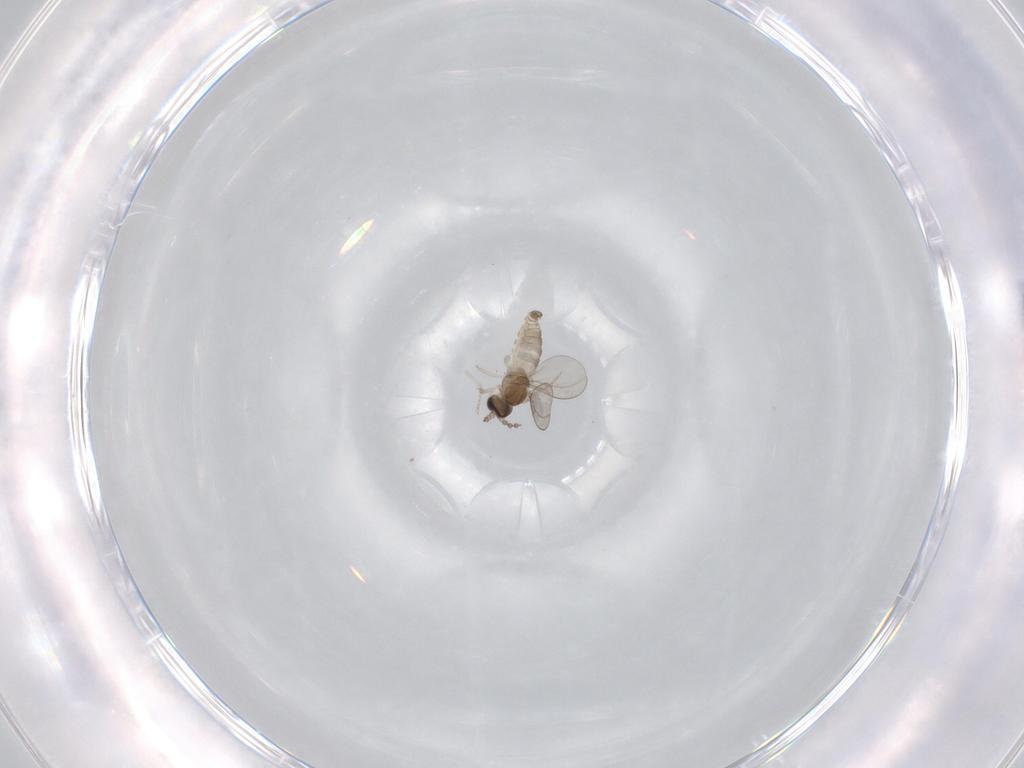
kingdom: Animalia
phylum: Arthropoda
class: Insecta
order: Diptera
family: Cecidomyiidae
